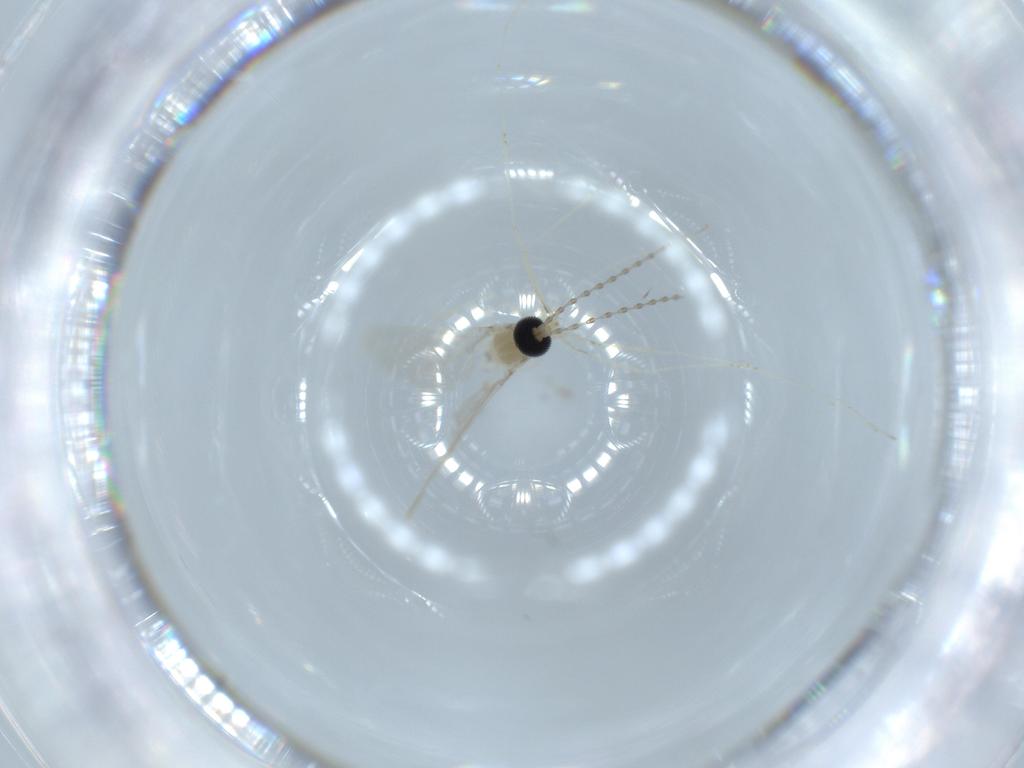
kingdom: Animalia
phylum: Arthropoda
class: Insecta
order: Diptera
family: Cecidomyiidae
